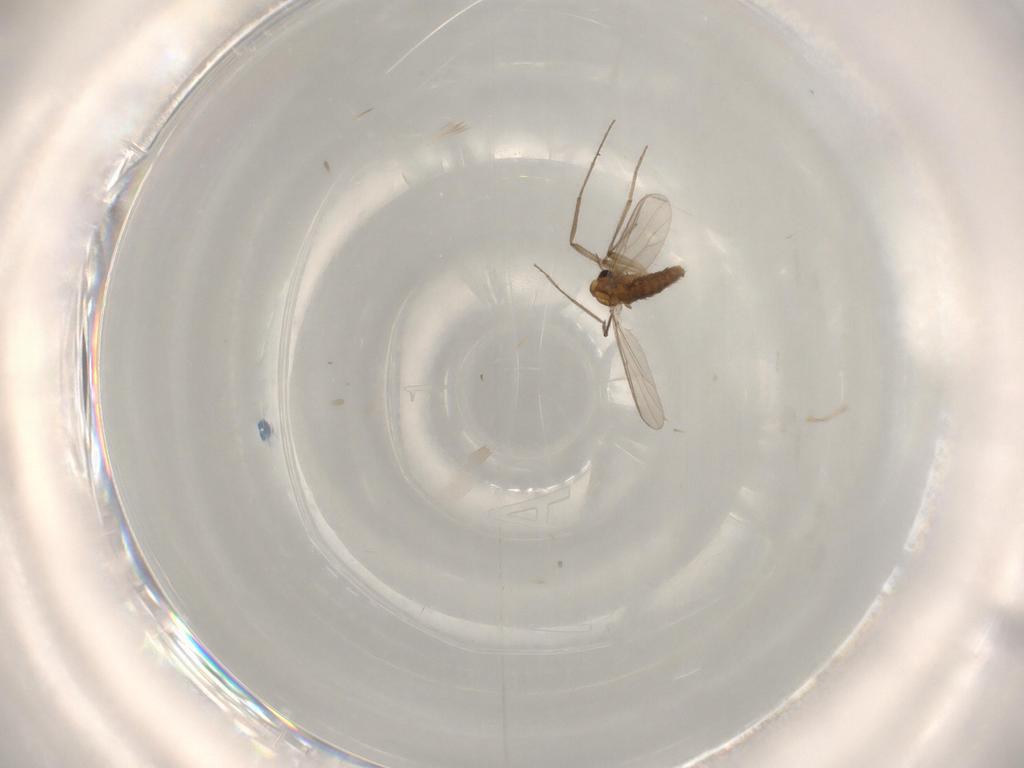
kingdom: Animalia
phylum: Arthropoda
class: Insecta
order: Diptera
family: Chironomidae
